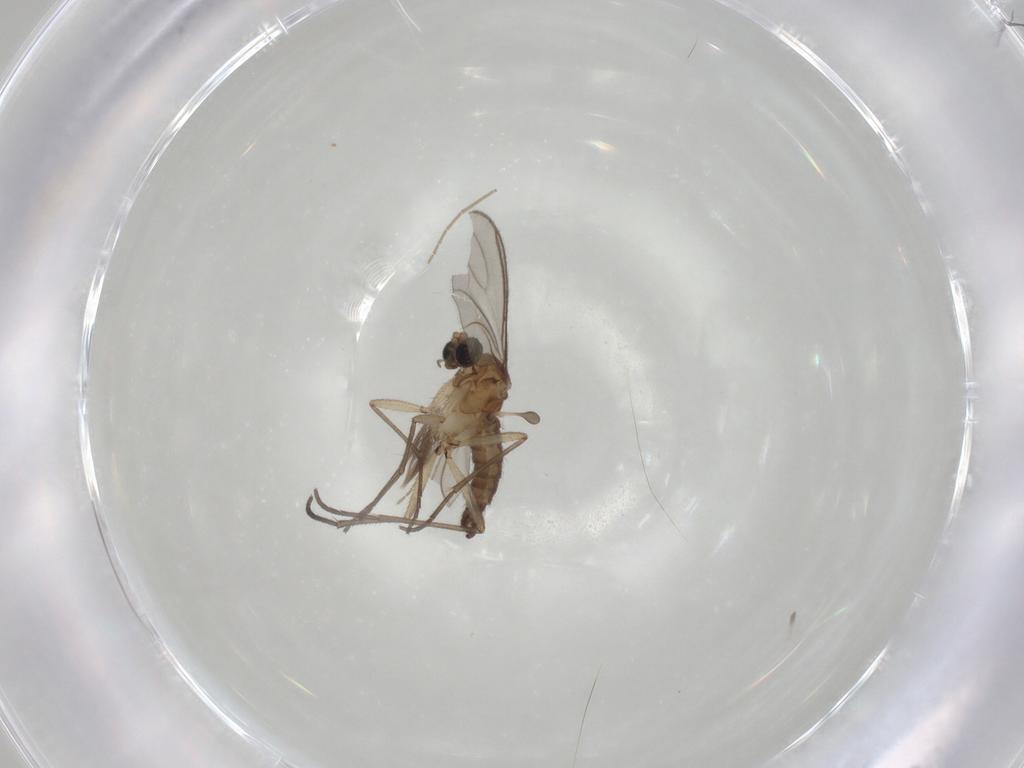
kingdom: Animalia
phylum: Arthropoda
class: Insecta
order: Diptera
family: Sciaridae
